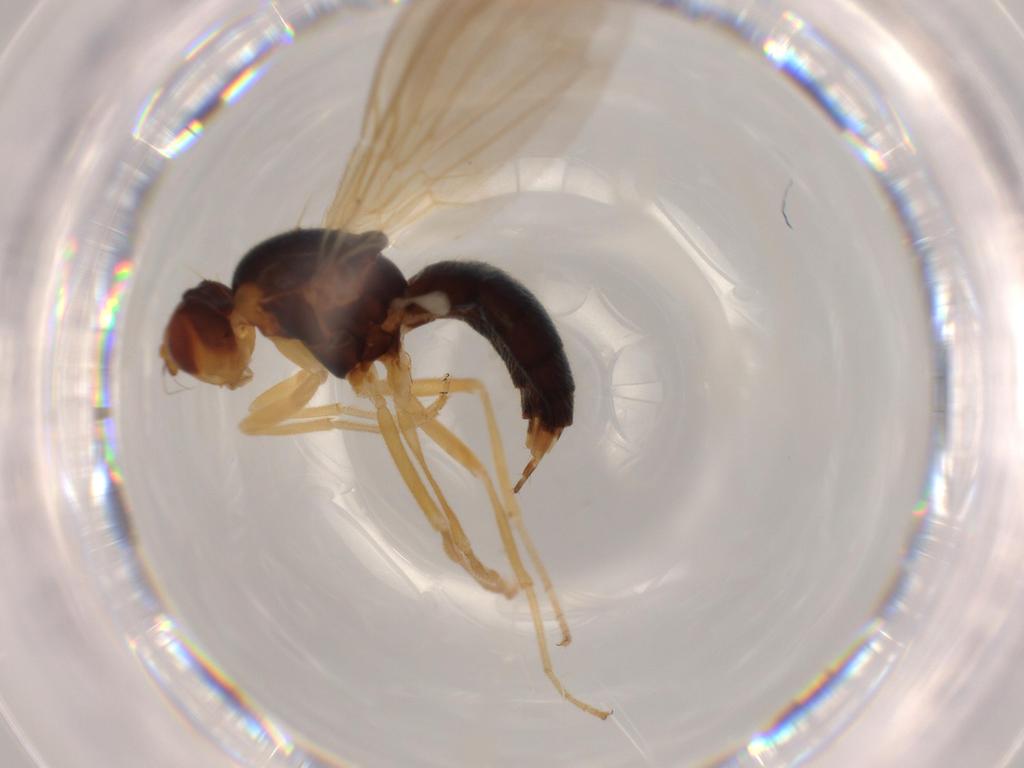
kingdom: Animalia
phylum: Arthropoda
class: Insecta
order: Diptera
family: Psilidae
